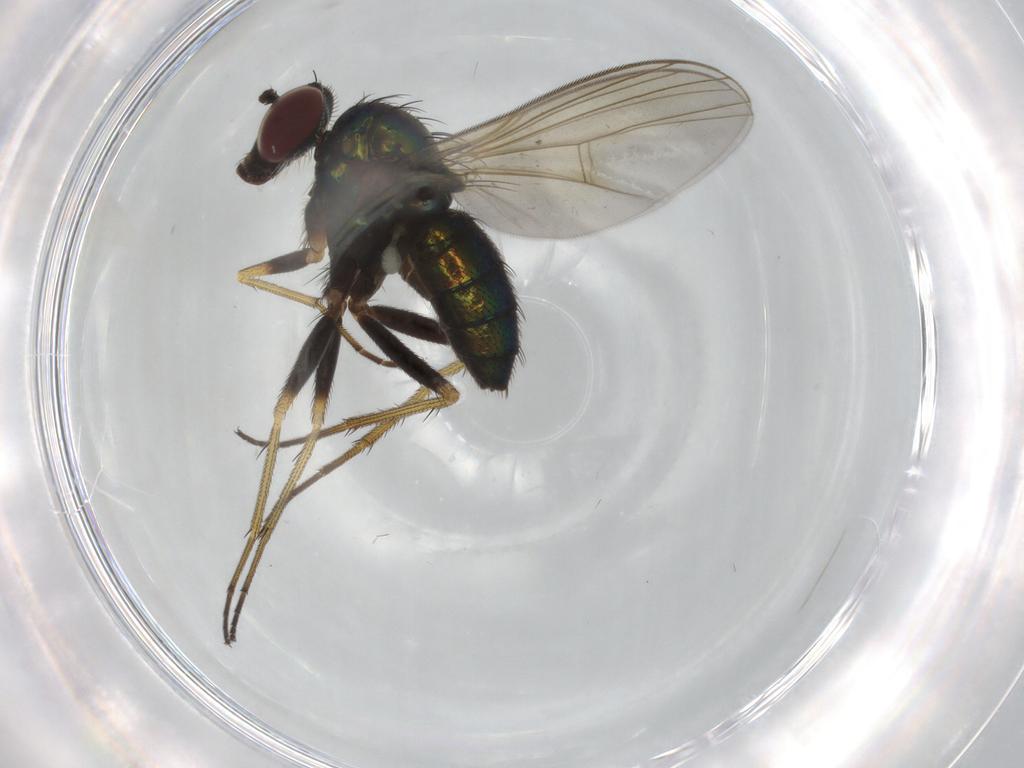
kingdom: Animalia
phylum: Arthropoda
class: Insecta
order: Diptera
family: Dolichopodidae
